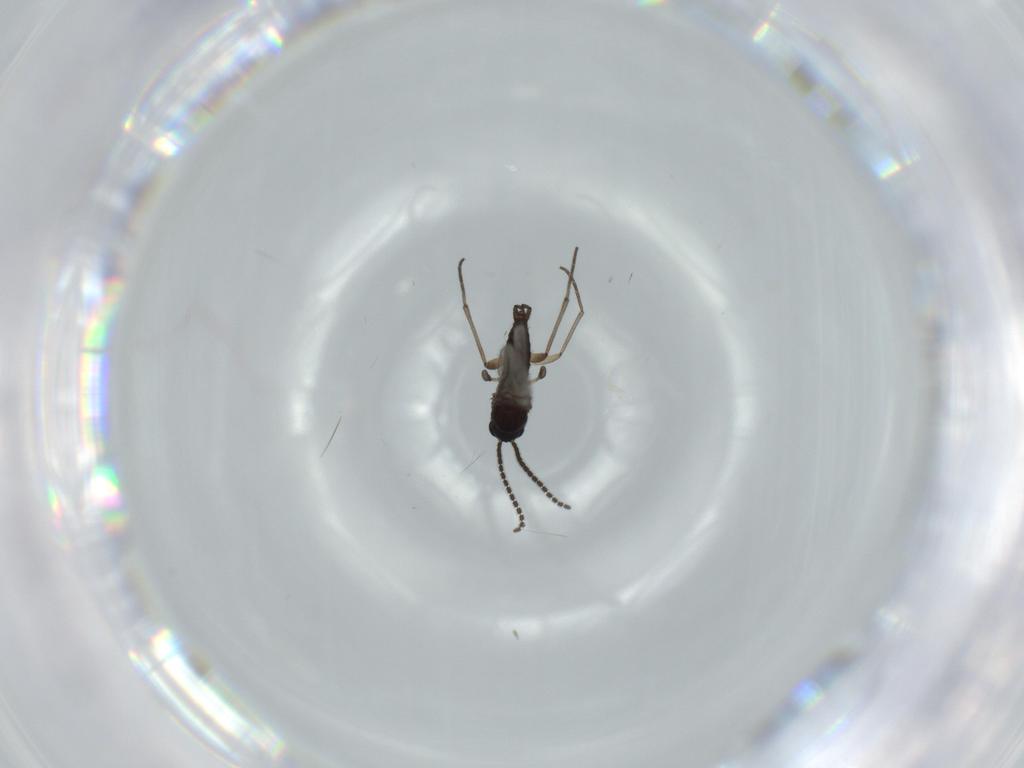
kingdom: Animalia
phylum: Arthropoda
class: Insecta
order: Diptera
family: Sciaridae
